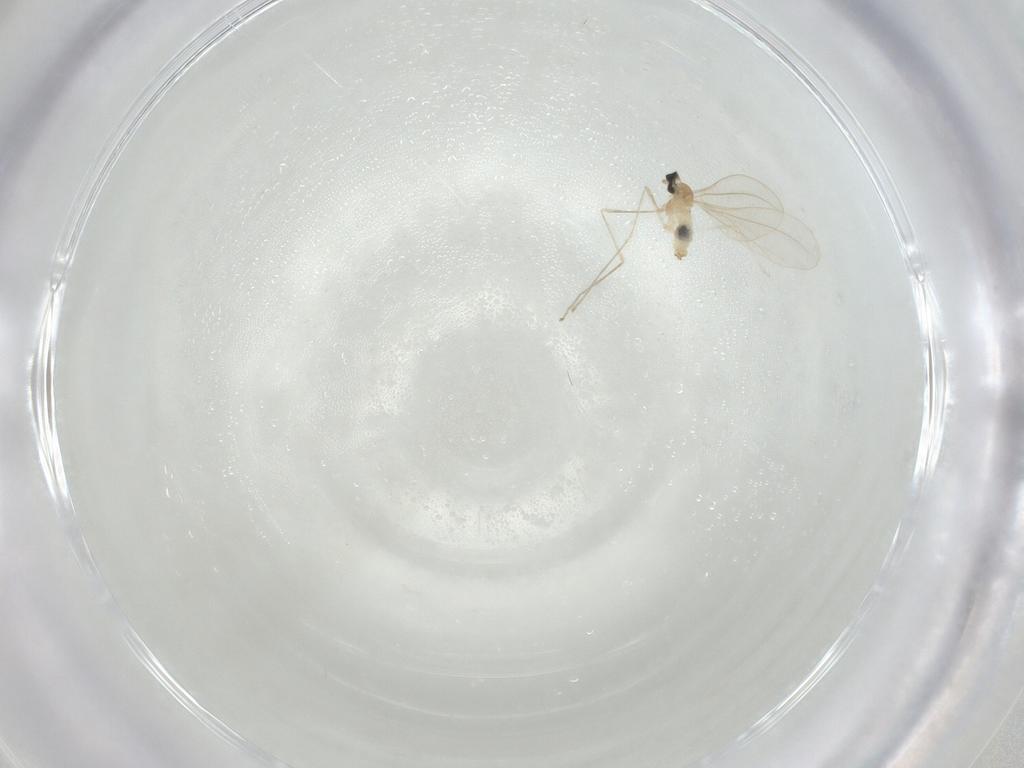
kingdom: Animalia
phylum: Arthropoda
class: Insecta
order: Diptera
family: Cecidomyiidae
